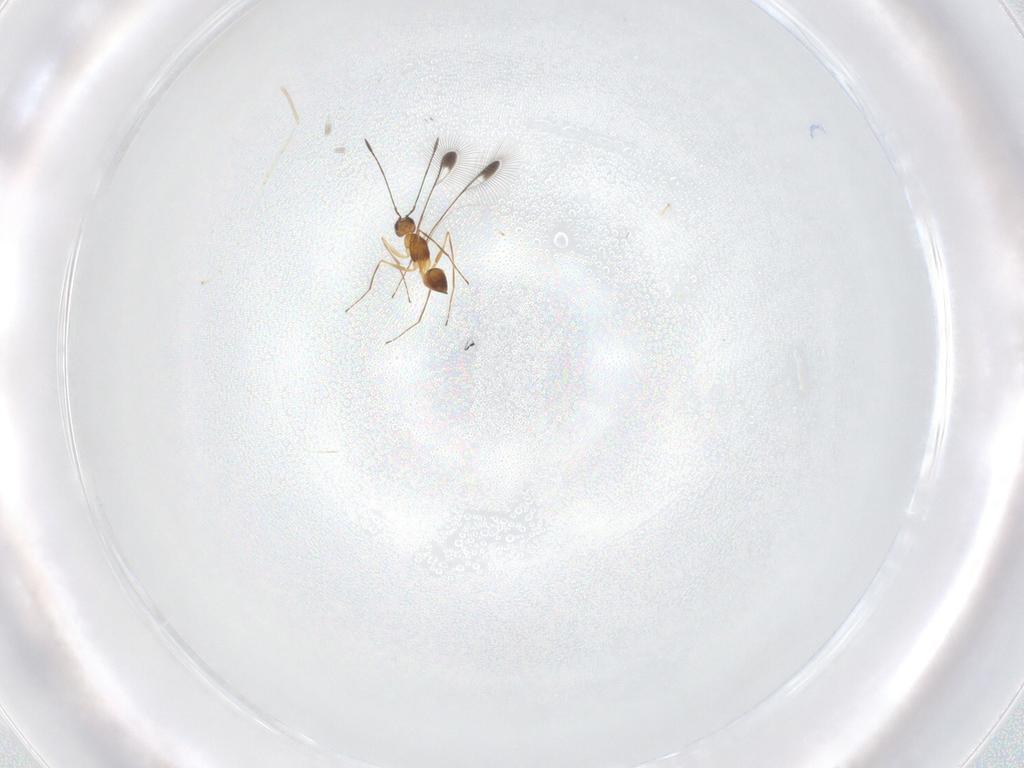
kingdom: Animalia
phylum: Arthropoda
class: Insecta
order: Hymenoptera
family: Mymaridae
